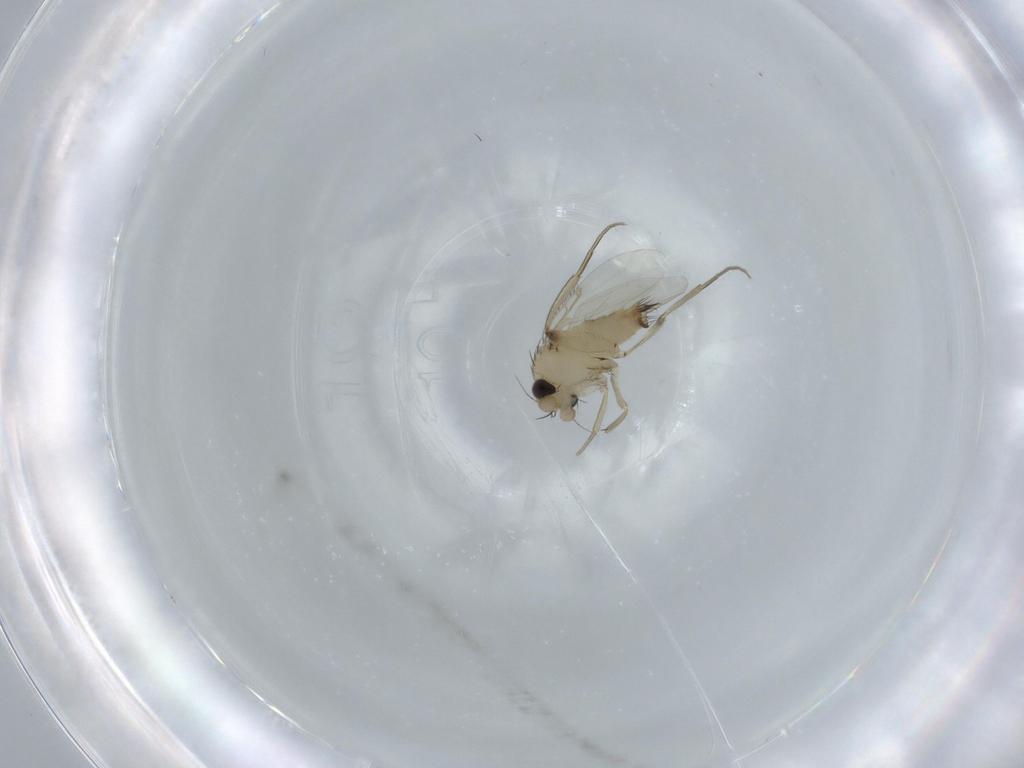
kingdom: Animalia
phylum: Arthropoda
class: Insecta
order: Diptera
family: Phoridae
